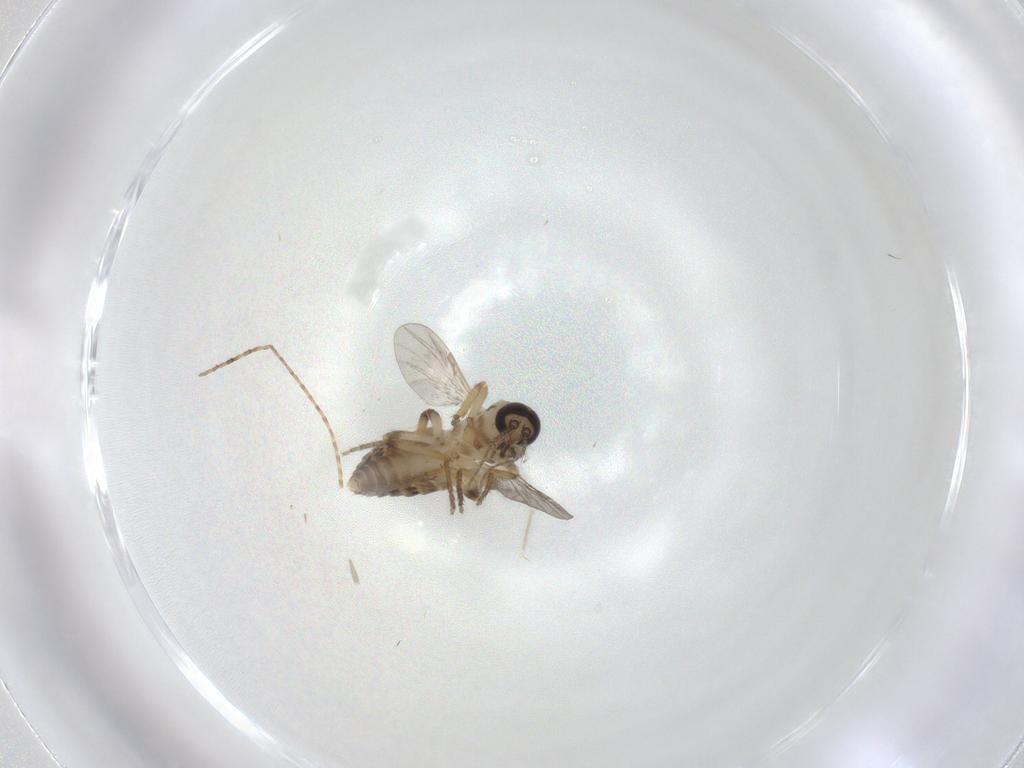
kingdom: Animalia
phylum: Arthropoda
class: Insecta
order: Diptera
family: Ceratopogonidae
